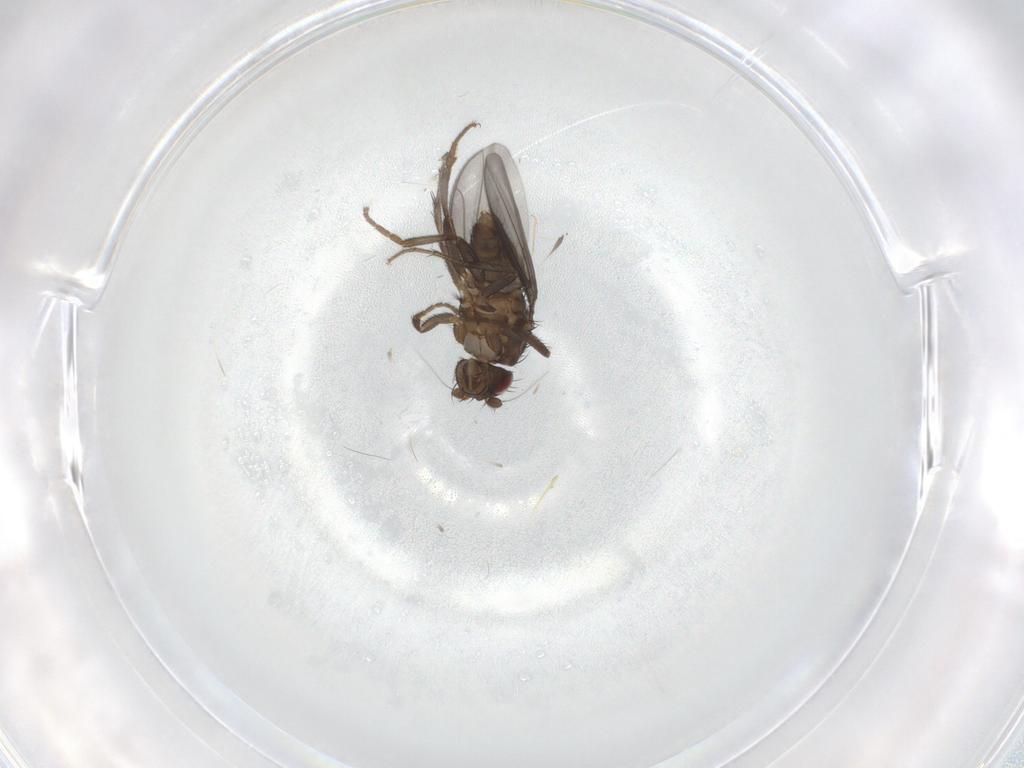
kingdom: Animalia
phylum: Arthropoda
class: Insecta
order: Diptera
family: Sphaeroceridae
